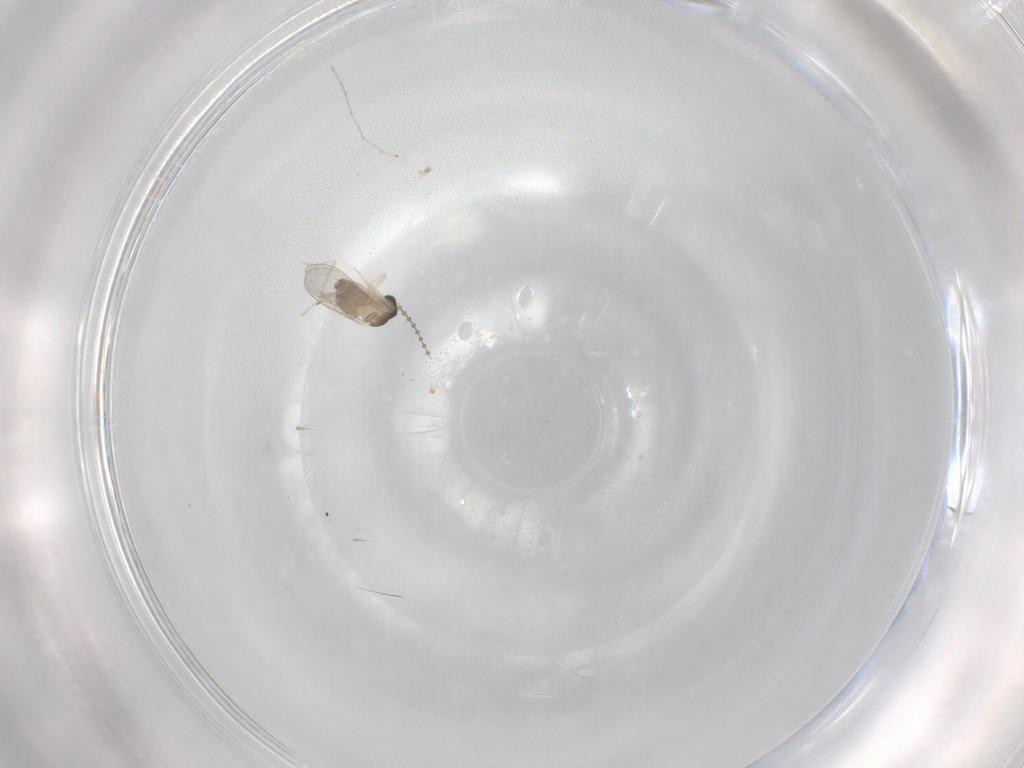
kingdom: Animalia
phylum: Arthropoda
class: Insecta
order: Diptera
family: Cecidomyiidae
